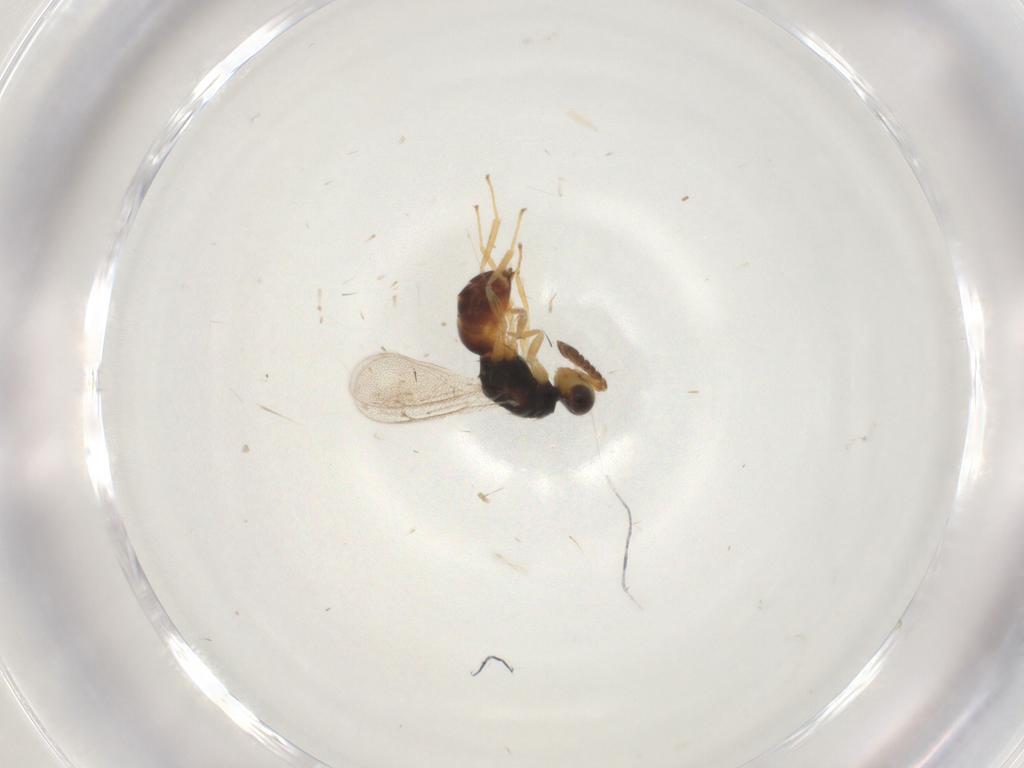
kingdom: Animalia
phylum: Arthropoda
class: Insecta
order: Hymenoptera
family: Eulophidae
